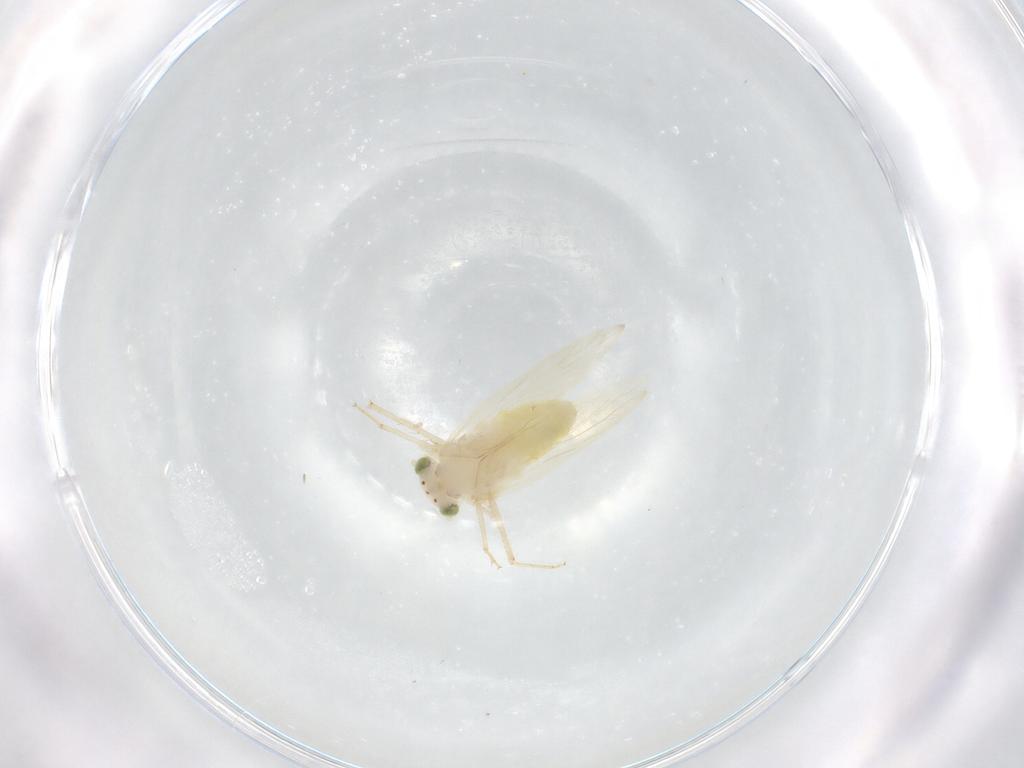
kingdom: Animalia
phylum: Arthropoda
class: Insecta
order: Psocodea
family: Lepidopsocidae
